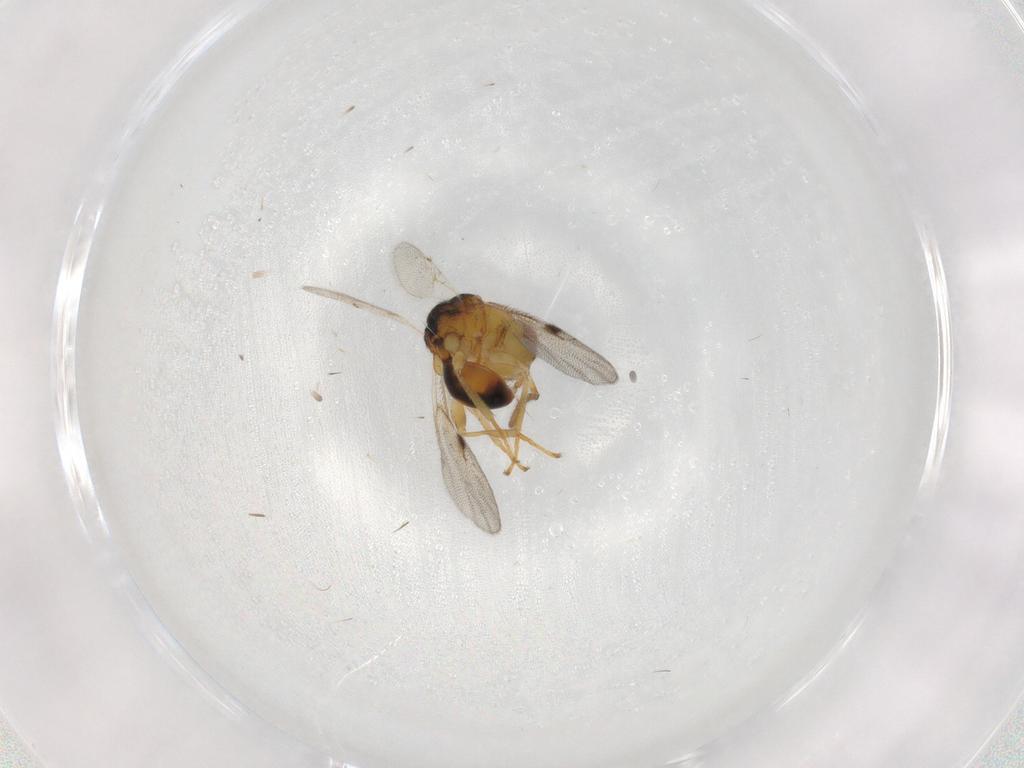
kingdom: Animalia
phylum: Arthropoda
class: Insecta
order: Hymenoptera
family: Eurytomidae
